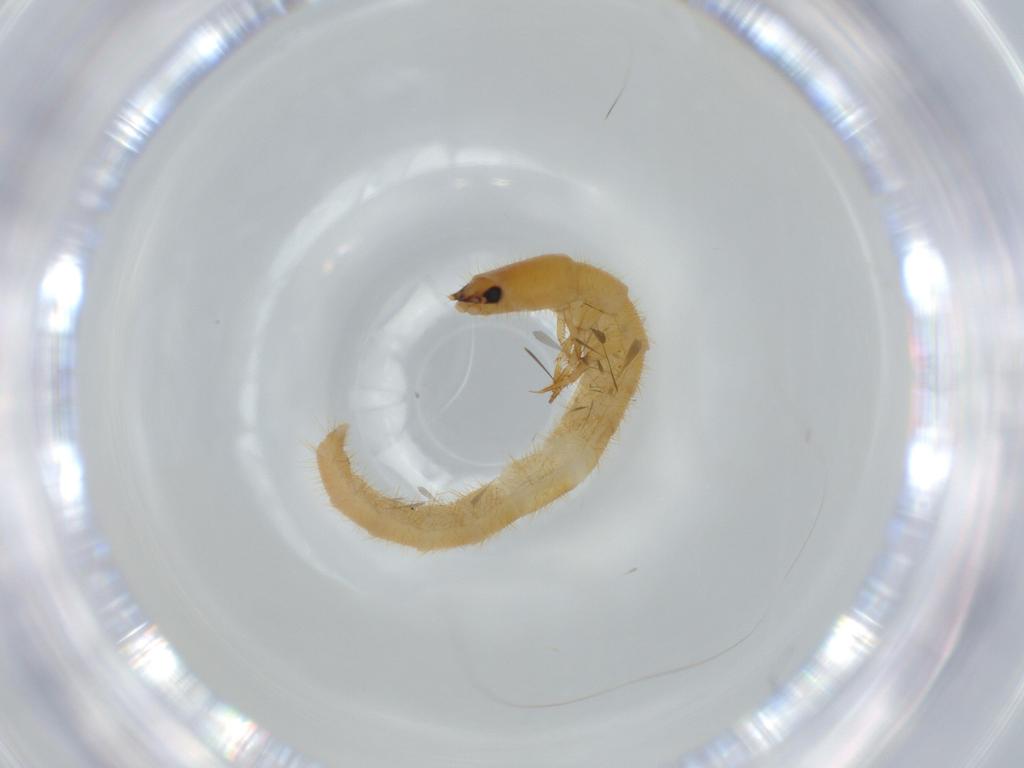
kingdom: Animalia
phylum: Arthropoda
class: Insecta
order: Coleoptera
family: Phengodidae
